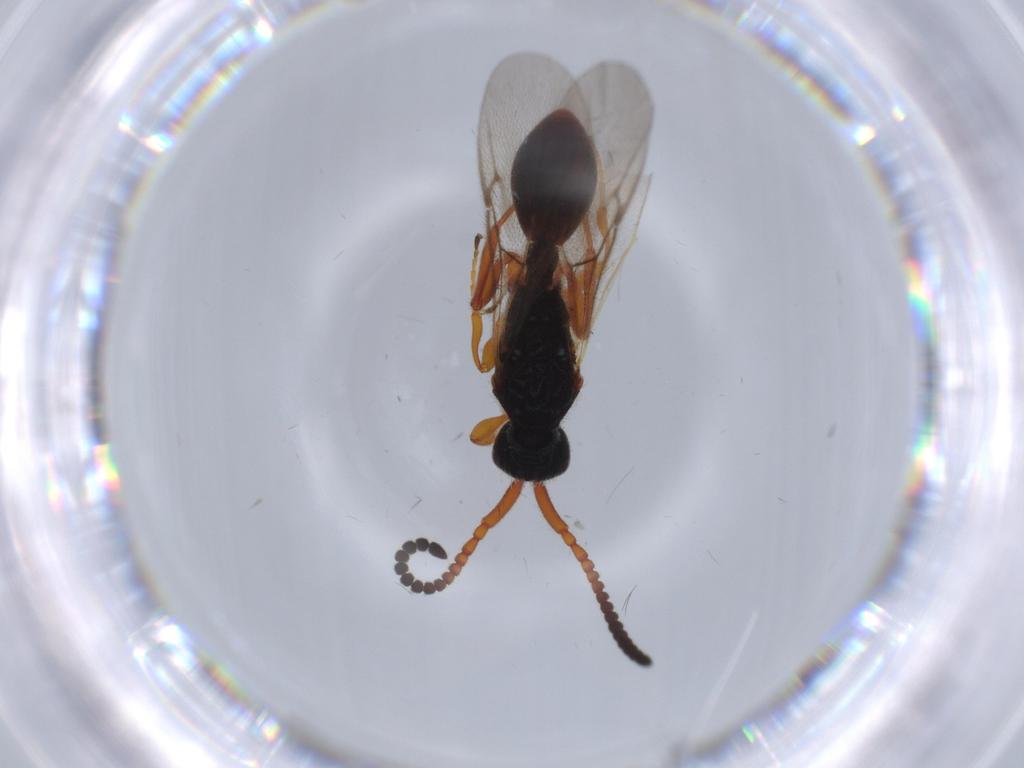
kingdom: Animalia
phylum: Arthropoda
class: Insecta
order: Hymenoptera
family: Diapriidae
